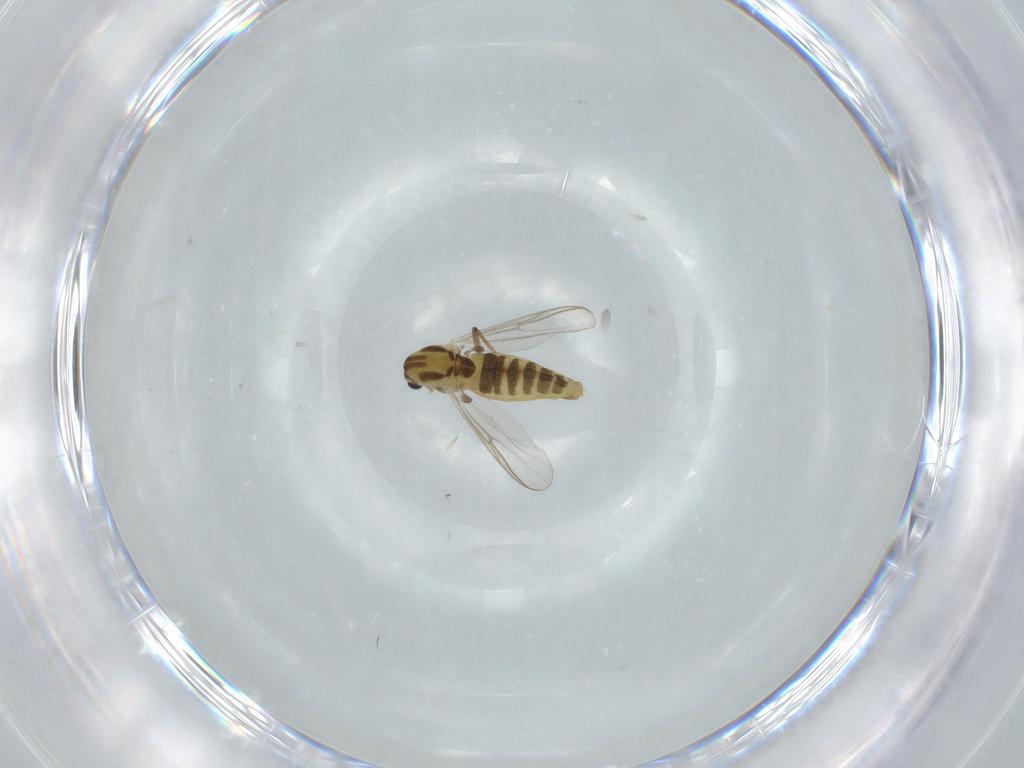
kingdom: Animalia
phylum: Arthropoda
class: Insecta
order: Diptera
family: Chironomidae
